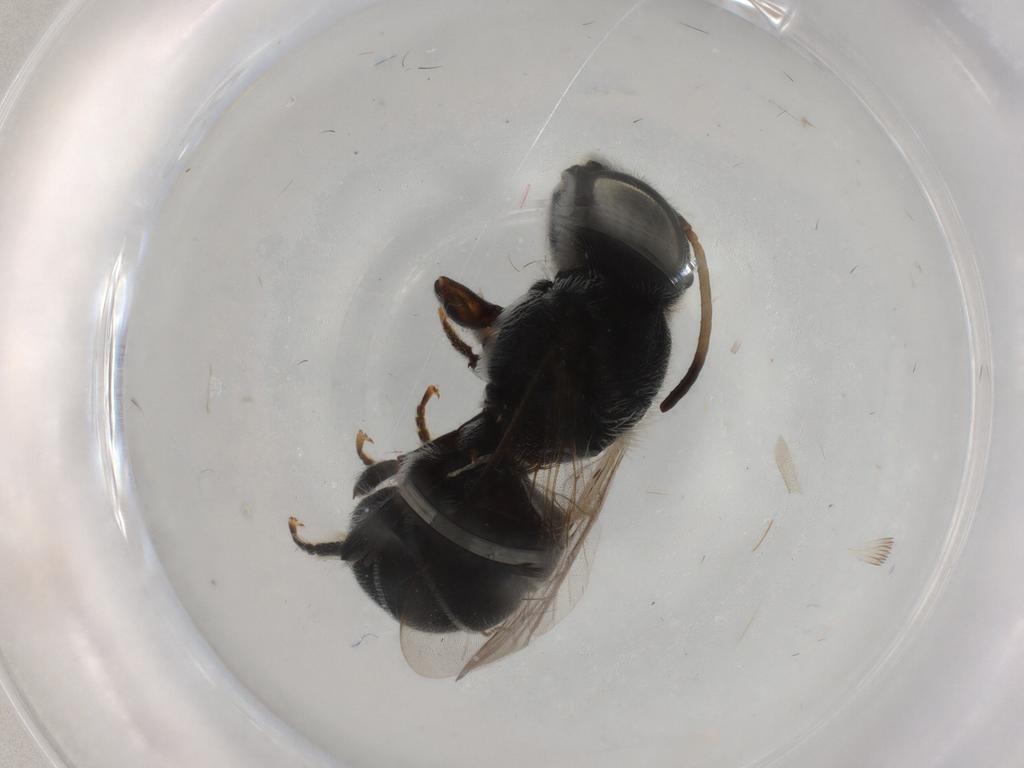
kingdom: Animalia
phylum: Arthropoda
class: Insecta
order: Hymenoptera
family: Megachilidae
